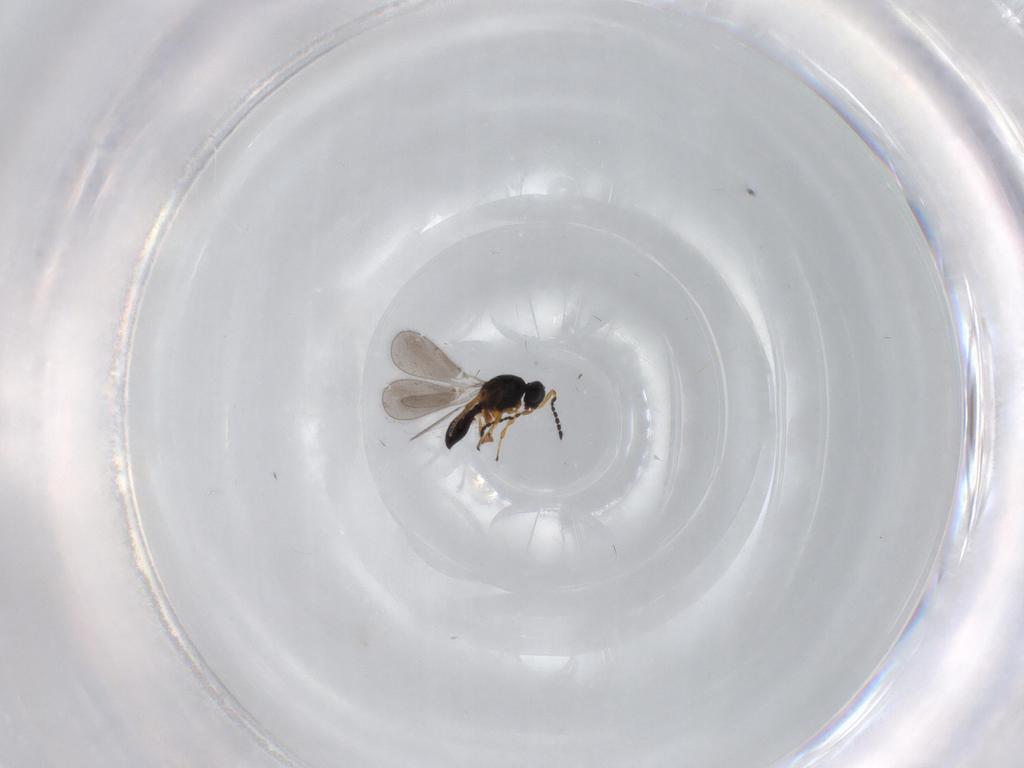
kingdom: Animalia
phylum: Arthropoda
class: Insecta
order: Hymenoptera
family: Platygastridae
